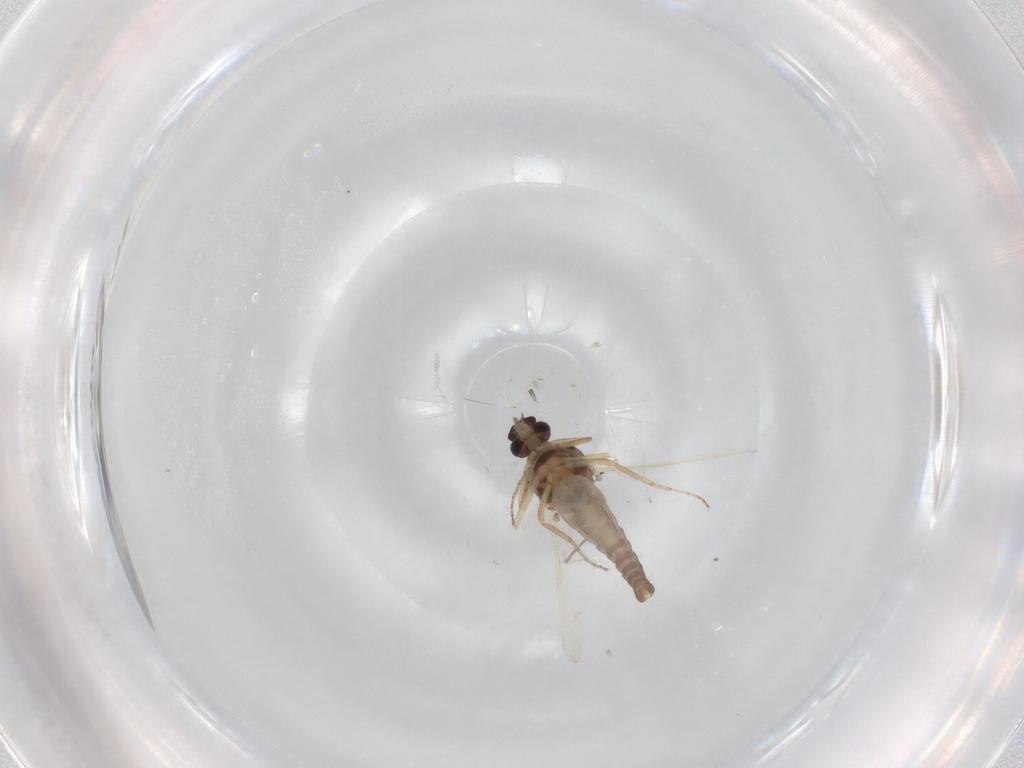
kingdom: Animalia
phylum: Arthropoda
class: Insecta
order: Diptera
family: Ceratopogonidae
